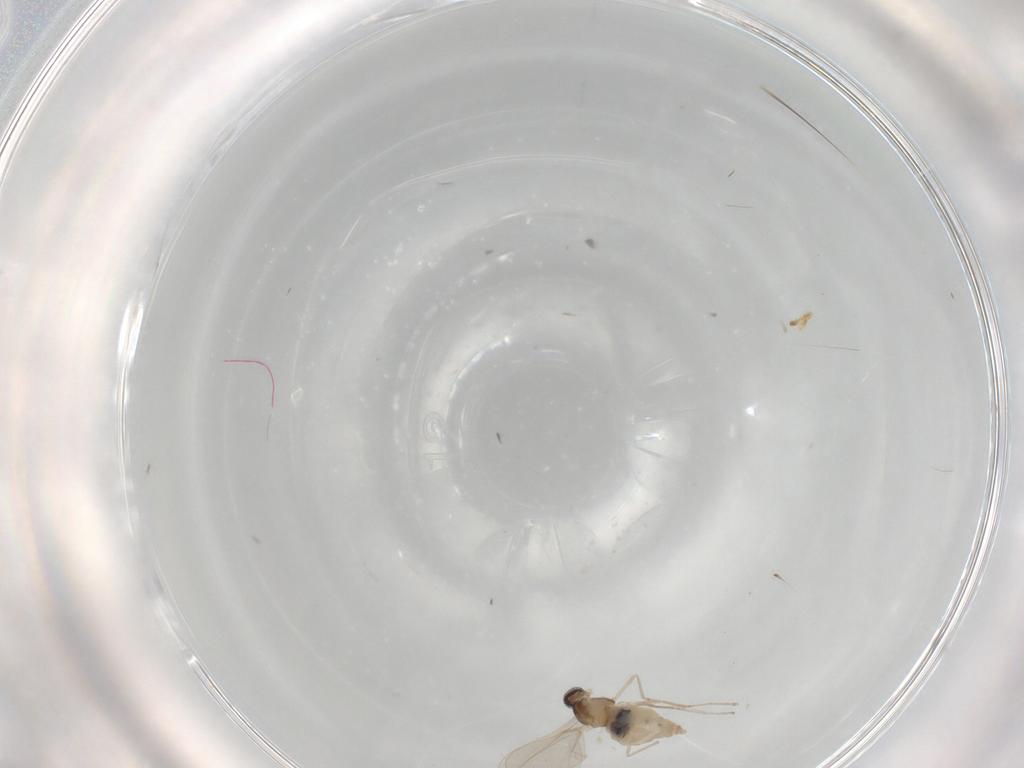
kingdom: Animalia
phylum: Arthropoda
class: Insecta
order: Diptera
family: Cecidomyiidae
